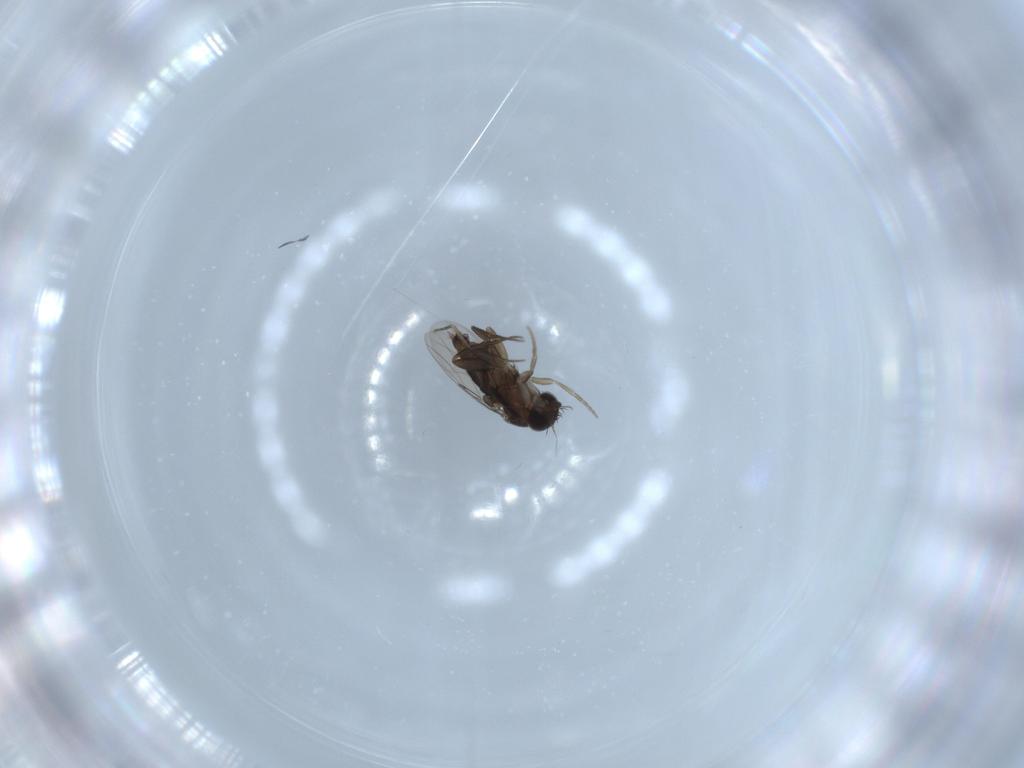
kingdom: Animalia
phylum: Arthropoda
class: Insecta
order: Diptera
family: Phoridae
